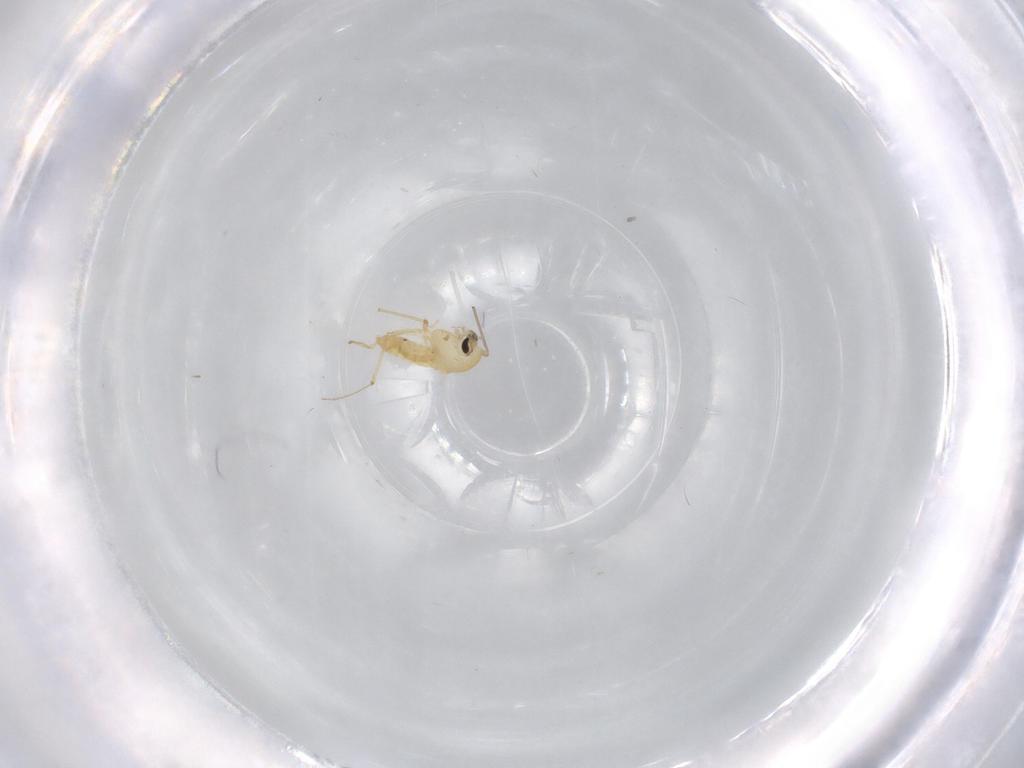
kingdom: Animalia
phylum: Arthropoda
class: Insecta
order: Diptera
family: Chironomidae
